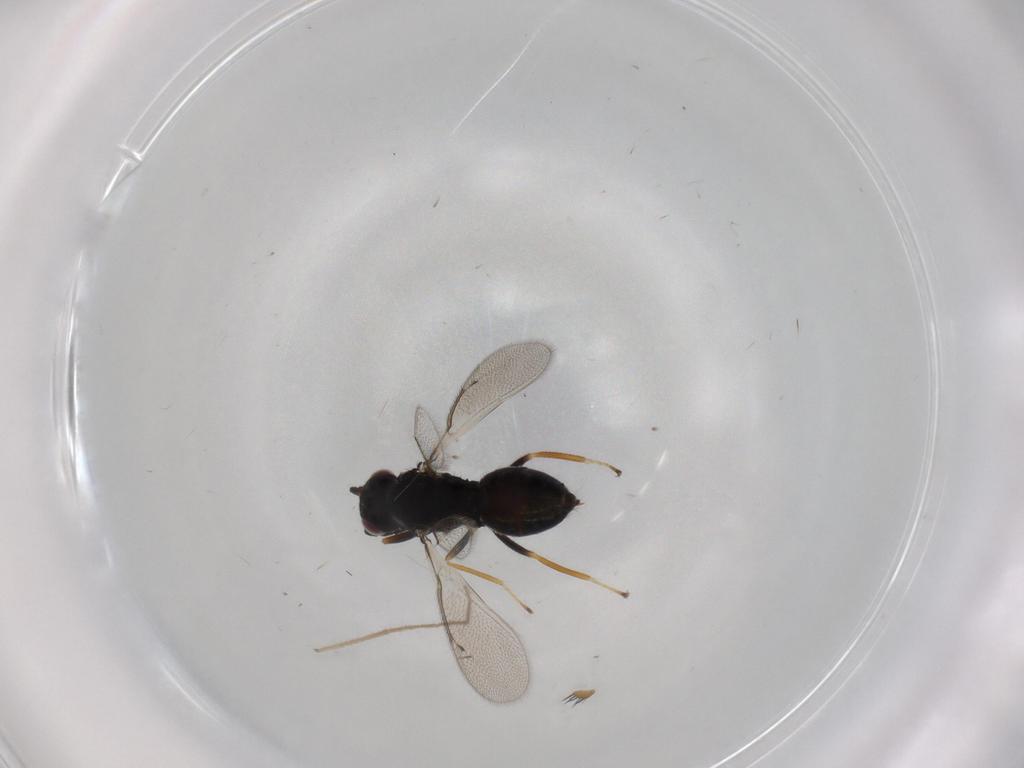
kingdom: Animalia
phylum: Arthropoda
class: Insecta
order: Hymenoptera
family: Eulophidae
